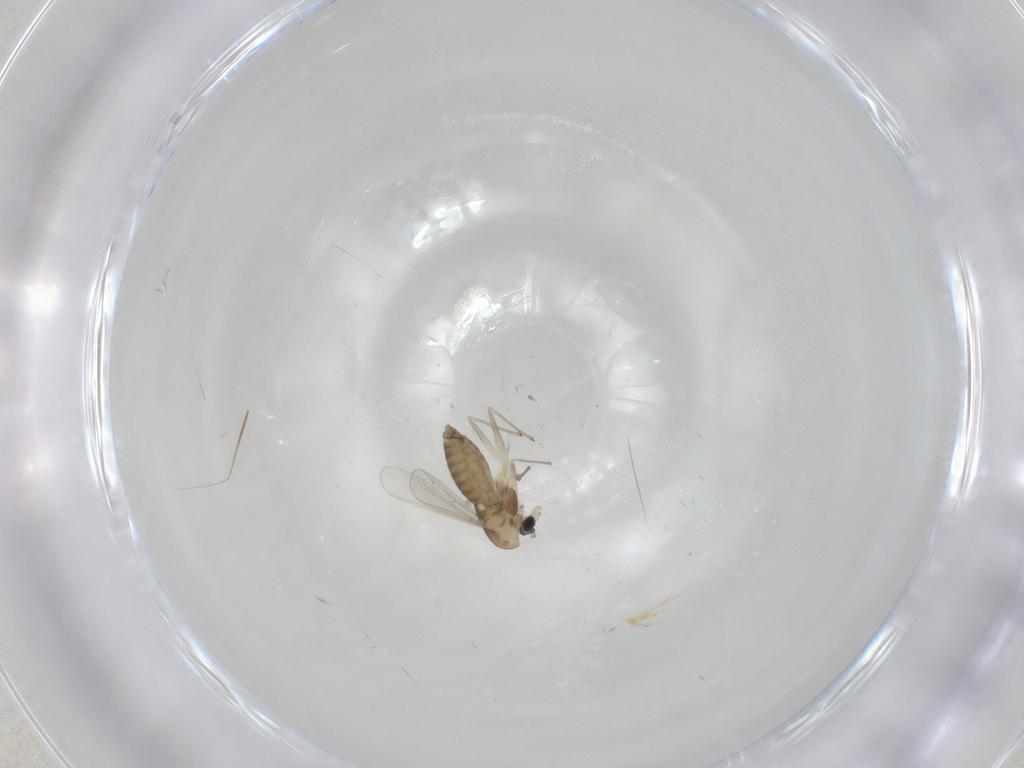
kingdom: Animalia
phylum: Arthropoda
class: Insecta
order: Diptera
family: Chironomidae
